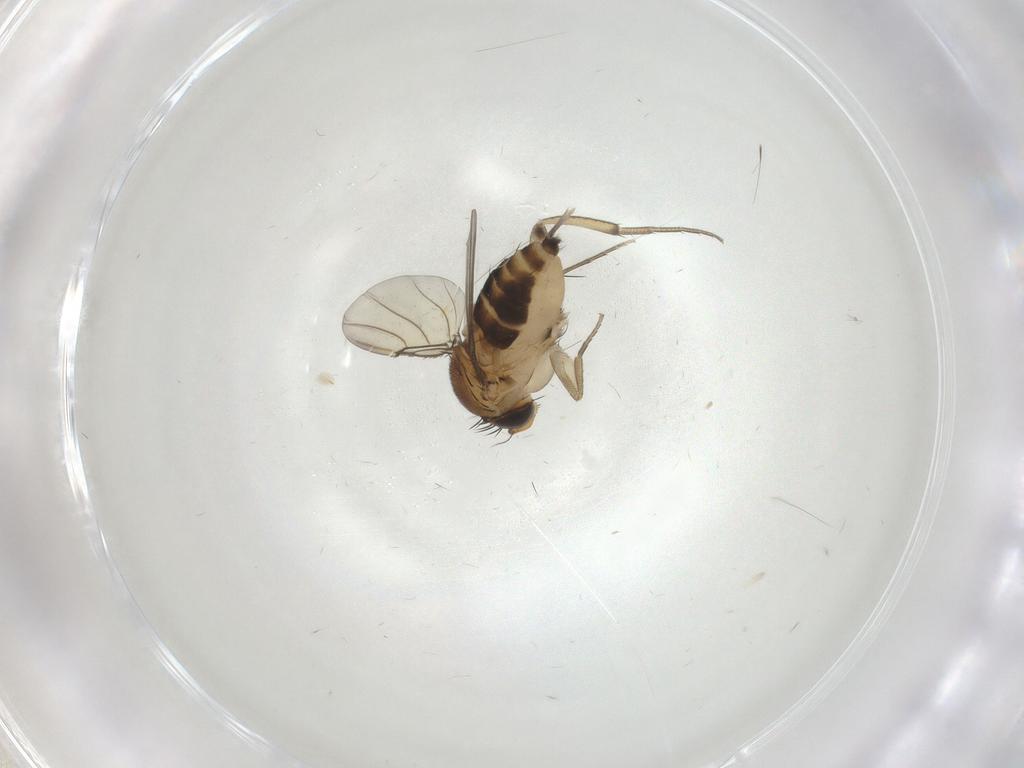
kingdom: Animalia
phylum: Arthropoda
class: Insecta
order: Diptera
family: Phoridae
